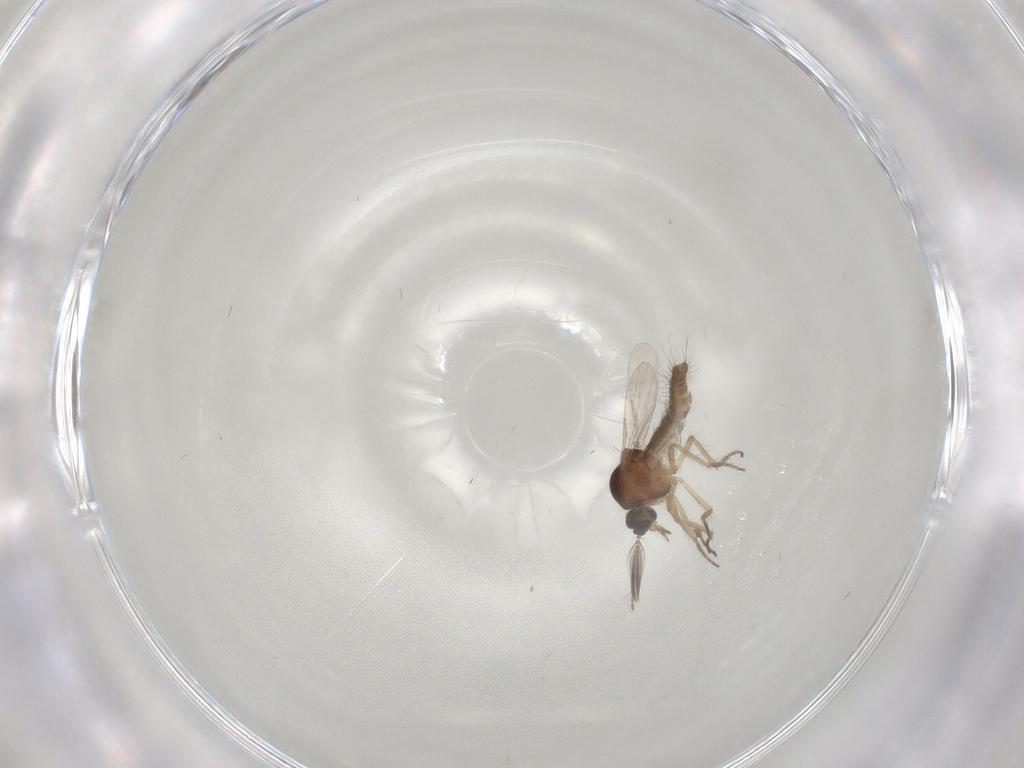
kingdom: Animalia
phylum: Arthropoda
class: Insecta
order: Diptera
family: Ceratopogonidae
